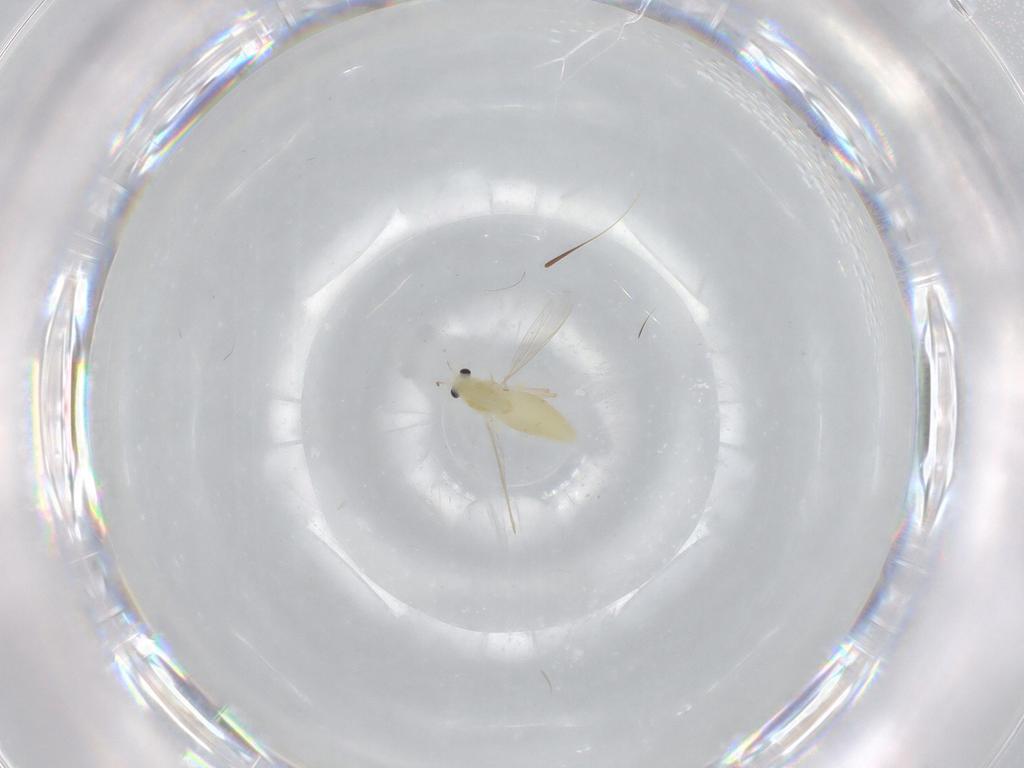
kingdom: Animalia
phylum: Arthropoda
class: Insecta
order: Diptera
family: Chironomidae
